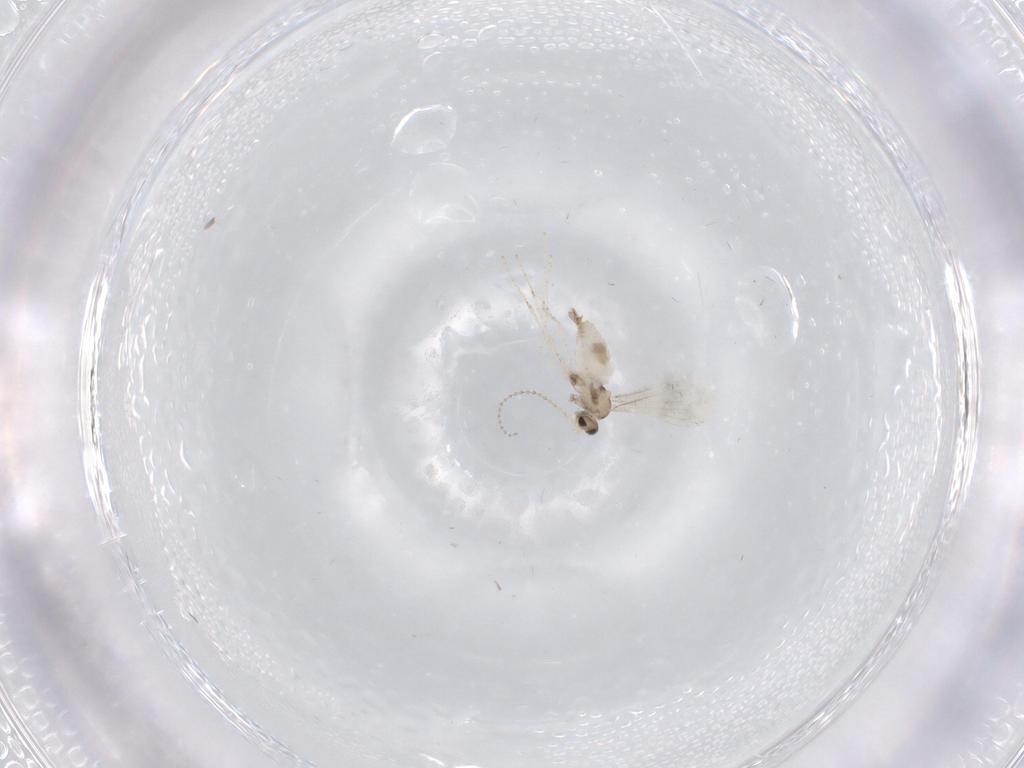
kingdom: Animalia
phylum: Arthropoda
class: Insecta
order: Diptera
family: Cecidomyiidae
